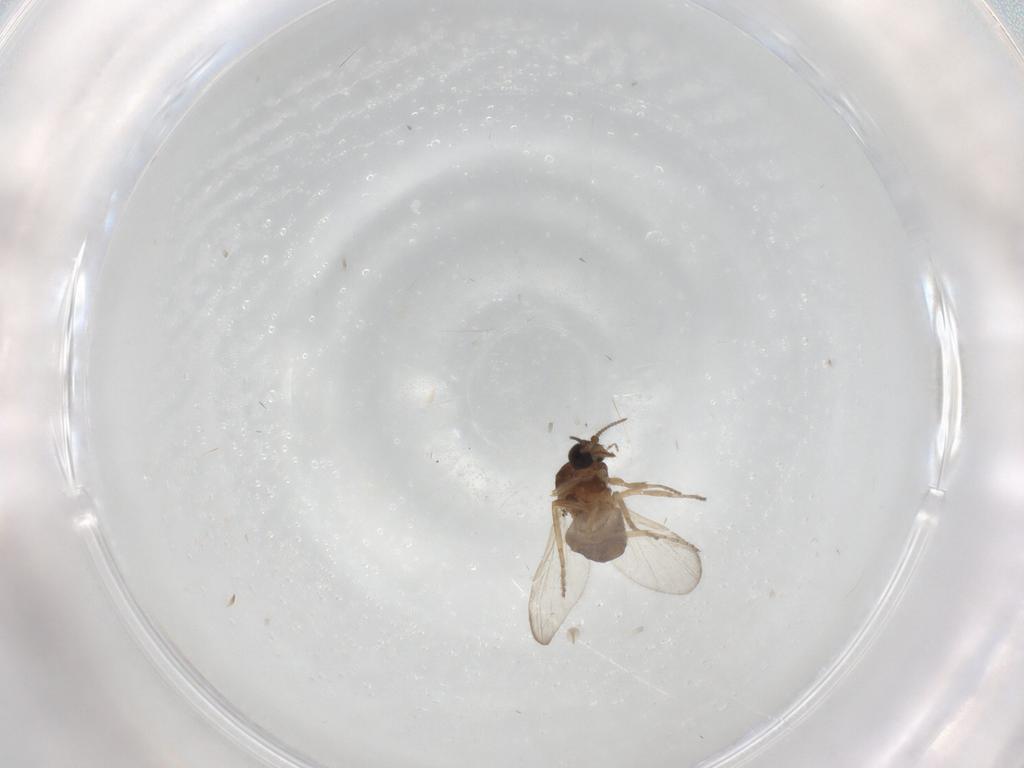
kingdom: Animalia
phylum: Arthropoda
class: Insecta
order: Diptera
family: Ceratopogonidae
